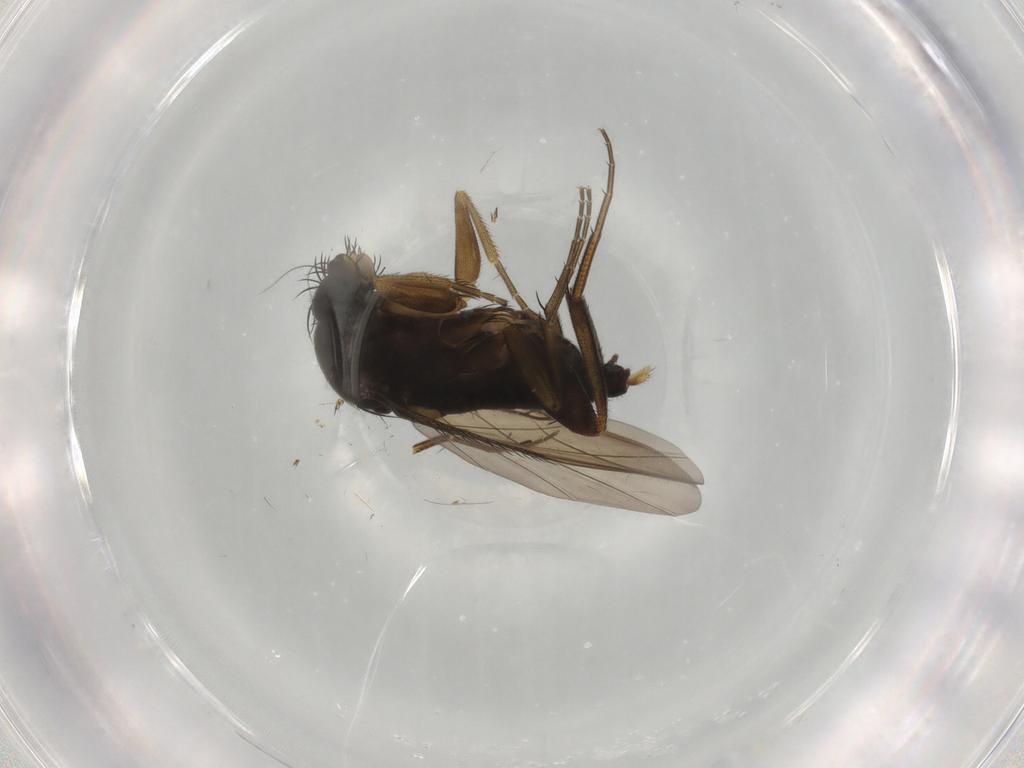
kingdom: Animalia
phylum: Arthropoda
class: Insecta
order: Diptera
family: Phoridae
